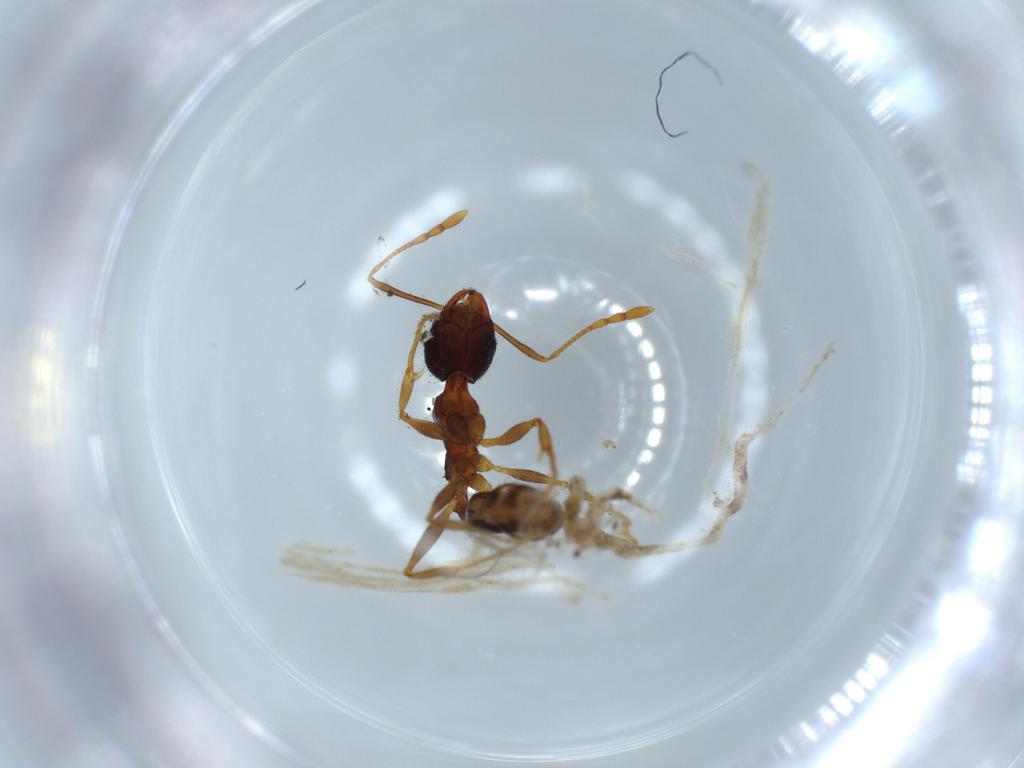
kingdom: Animalia
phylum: Arthropoda
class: Insecta
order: Hymenoptera
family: Formicidae
